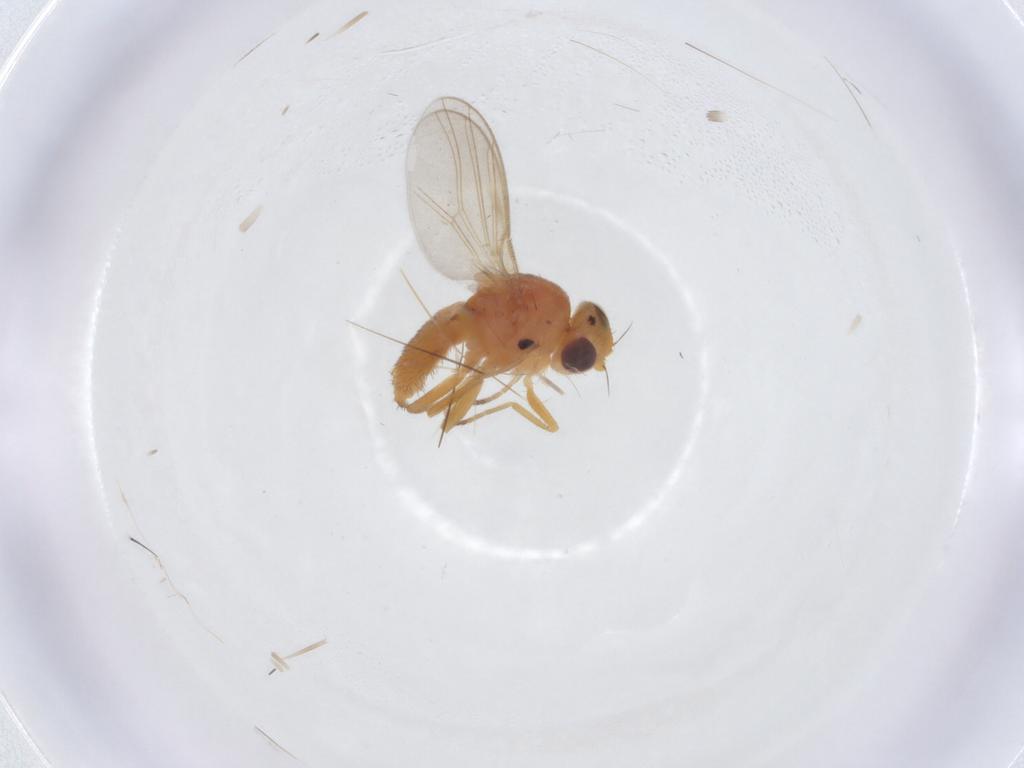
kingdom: Animalia
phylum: Arthropoda
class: Insecta
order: Diptera
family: Chloropidae
